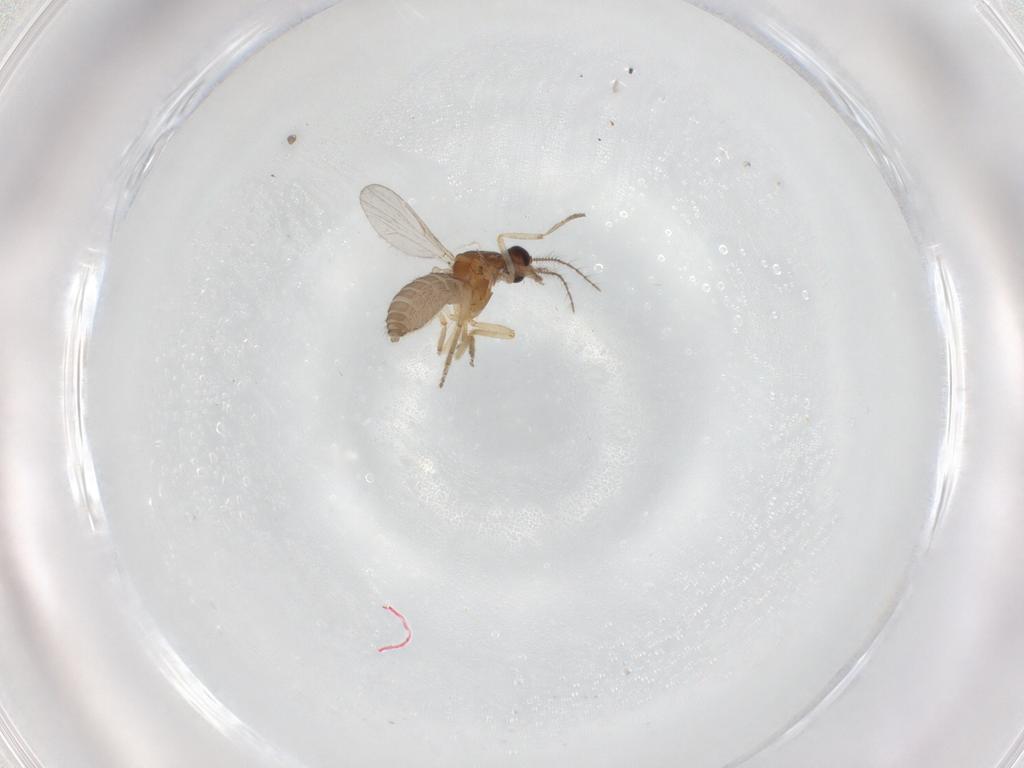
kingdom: Animalia
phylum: Arthropoda
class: Insecta
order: Diptera
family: Ceratopogonidae
